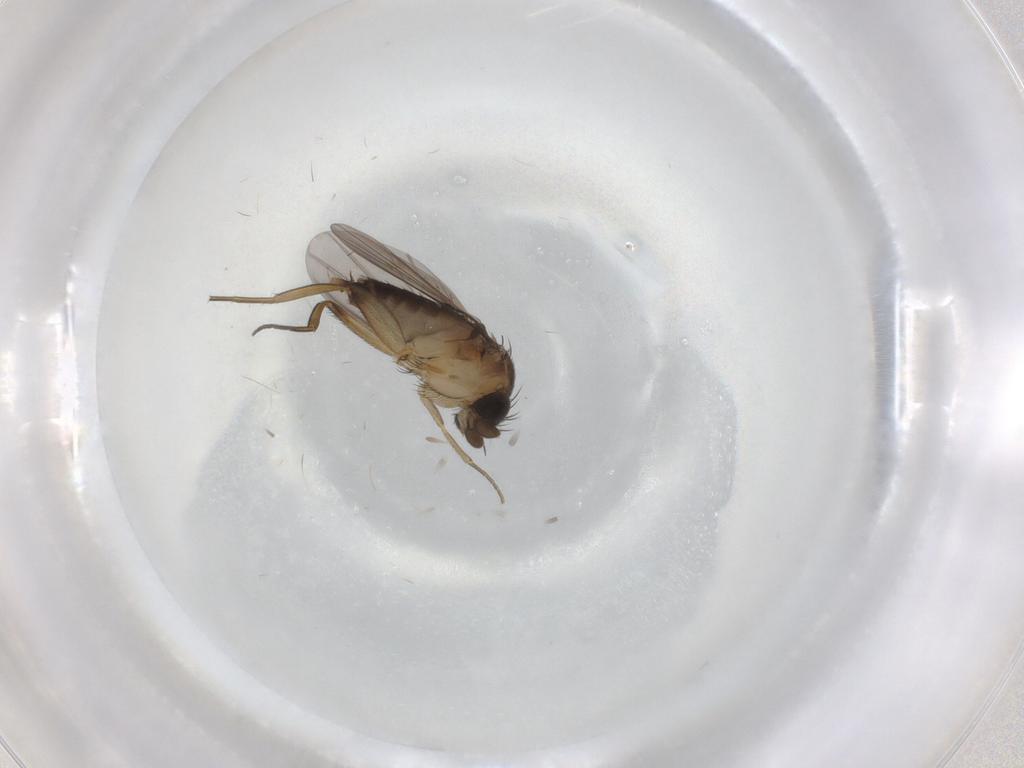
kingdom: Animalia
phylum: Arthropoda
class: Insecta
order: Diptera
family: Phoridae
